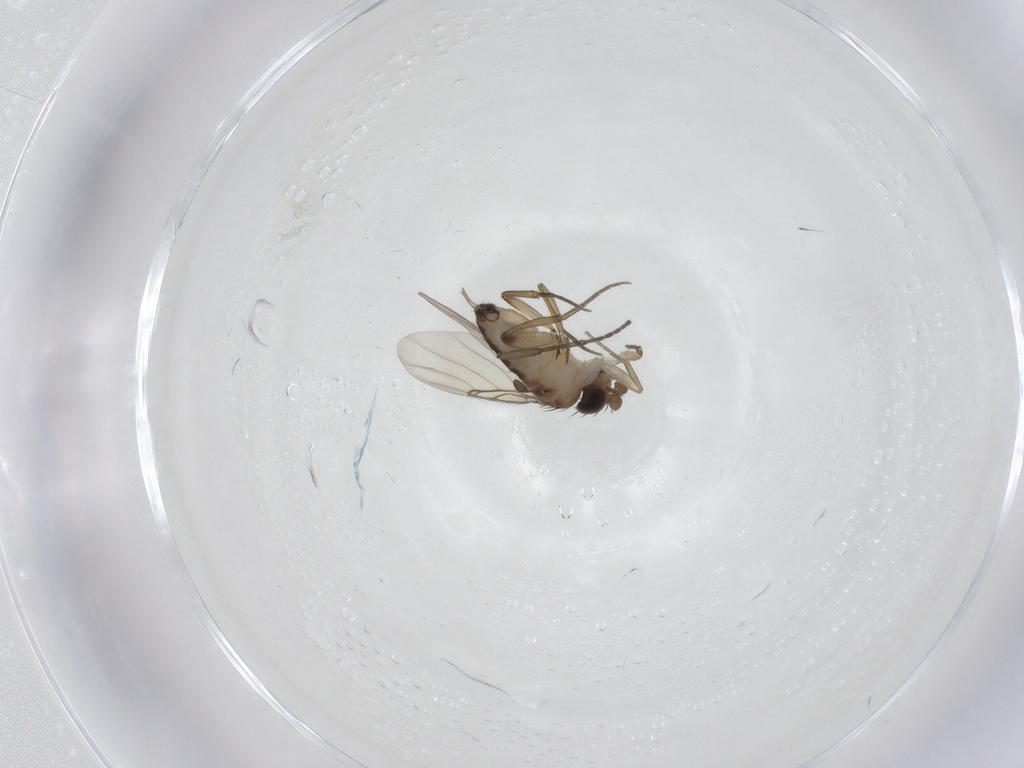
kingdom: Animalia
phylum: Arthropoda
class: Insecta
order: Diptera
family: Phoridae
